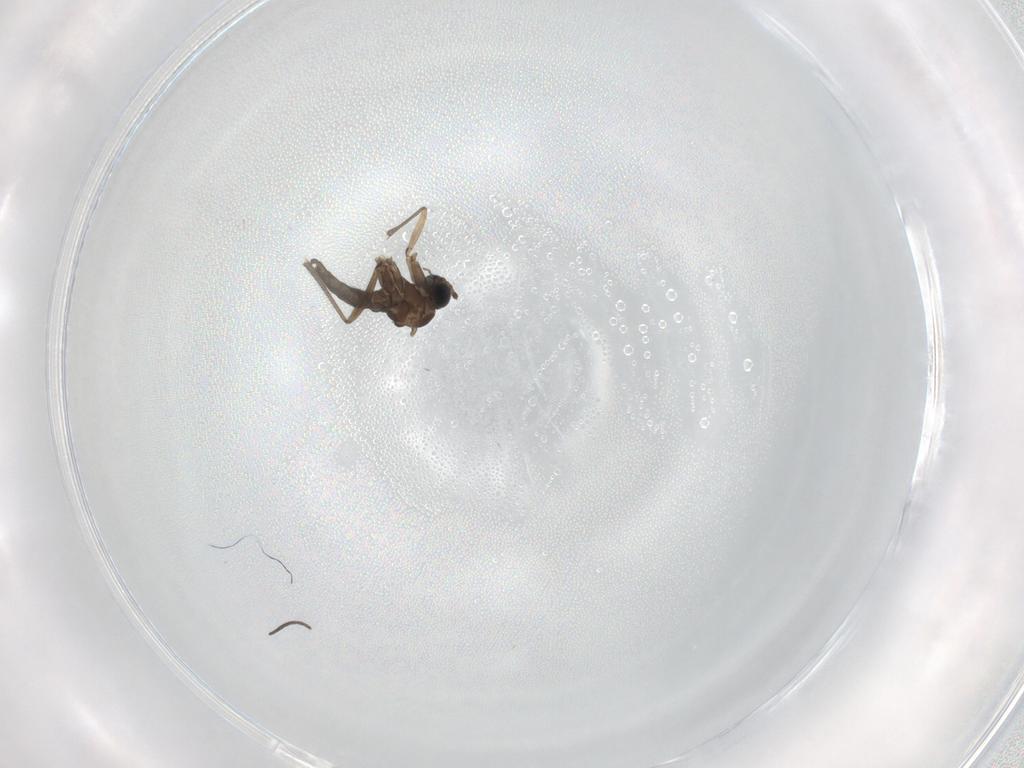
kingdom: Animalia
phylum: Arthropoda
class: Insecta
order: Diptera
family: Sciaridae
